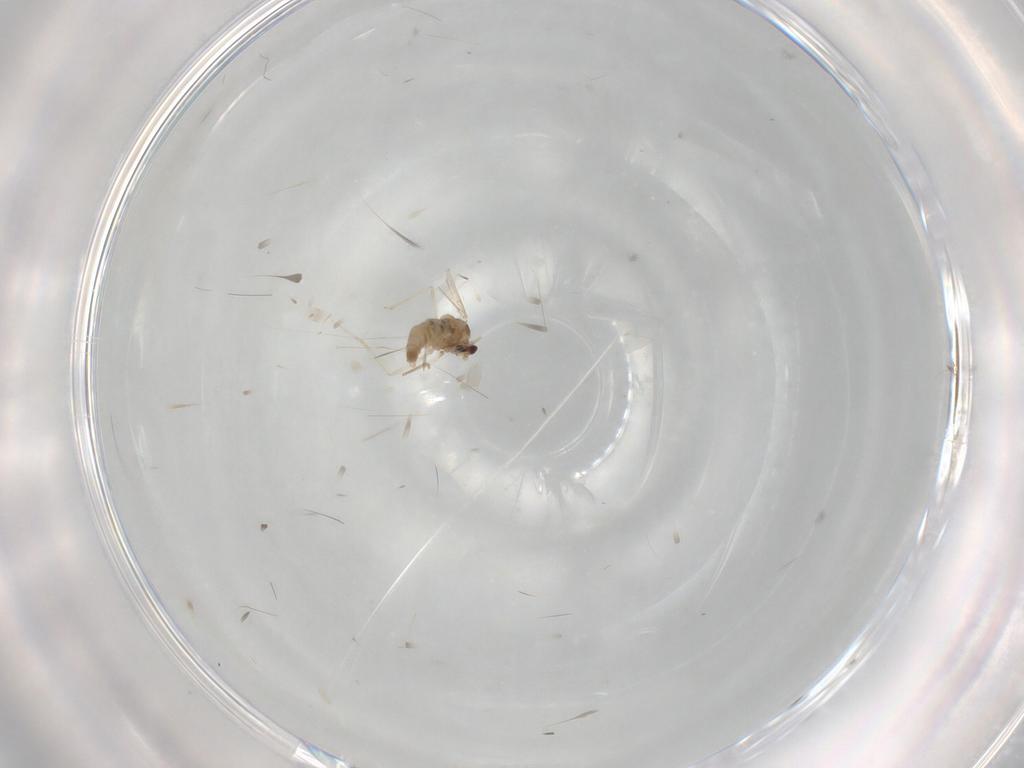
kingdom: Animalia
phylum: Arthropoda
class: Insecta
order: Diptera
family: Cecidomyiidae
